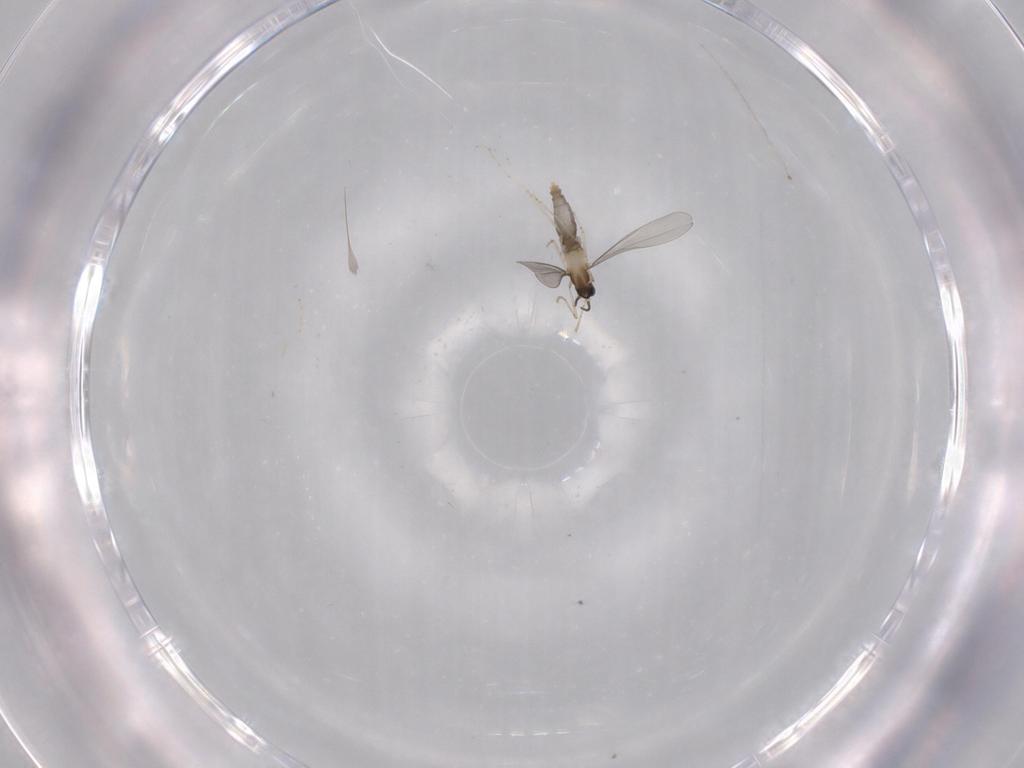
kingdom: Animalia
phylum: Arthropoda
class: Insecta
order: Diptera
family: Cecidomyiidae
